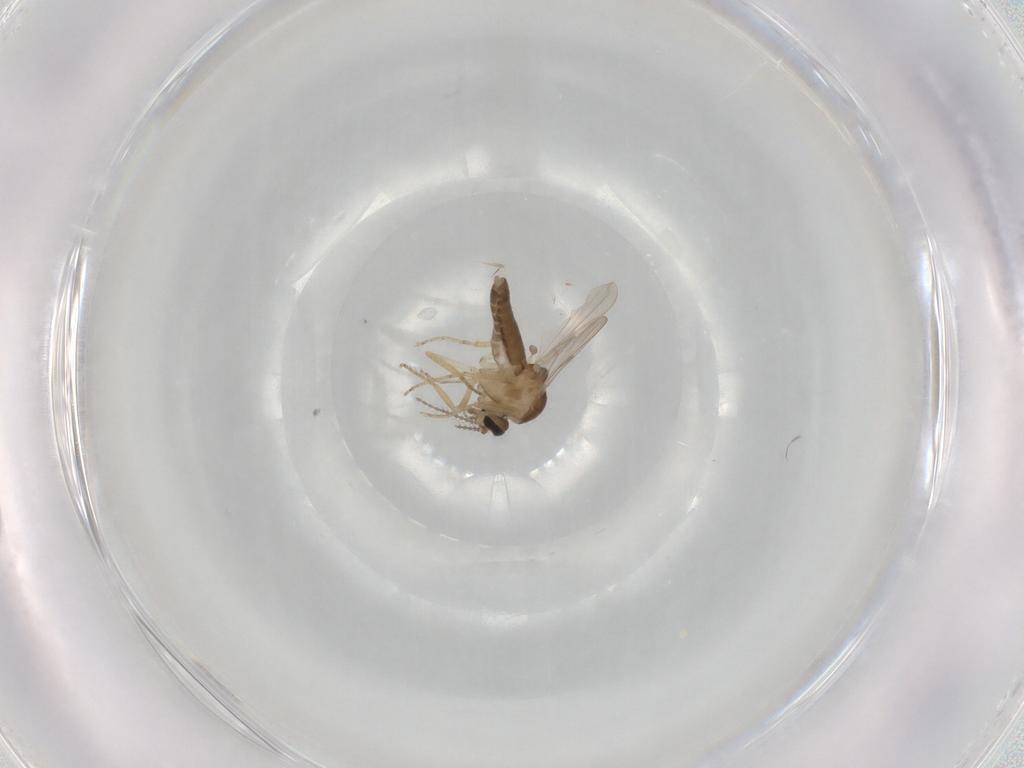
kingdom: Animalia
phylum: Arthropoda
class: Insecta
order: Diptera
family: Ceratopogonidae
